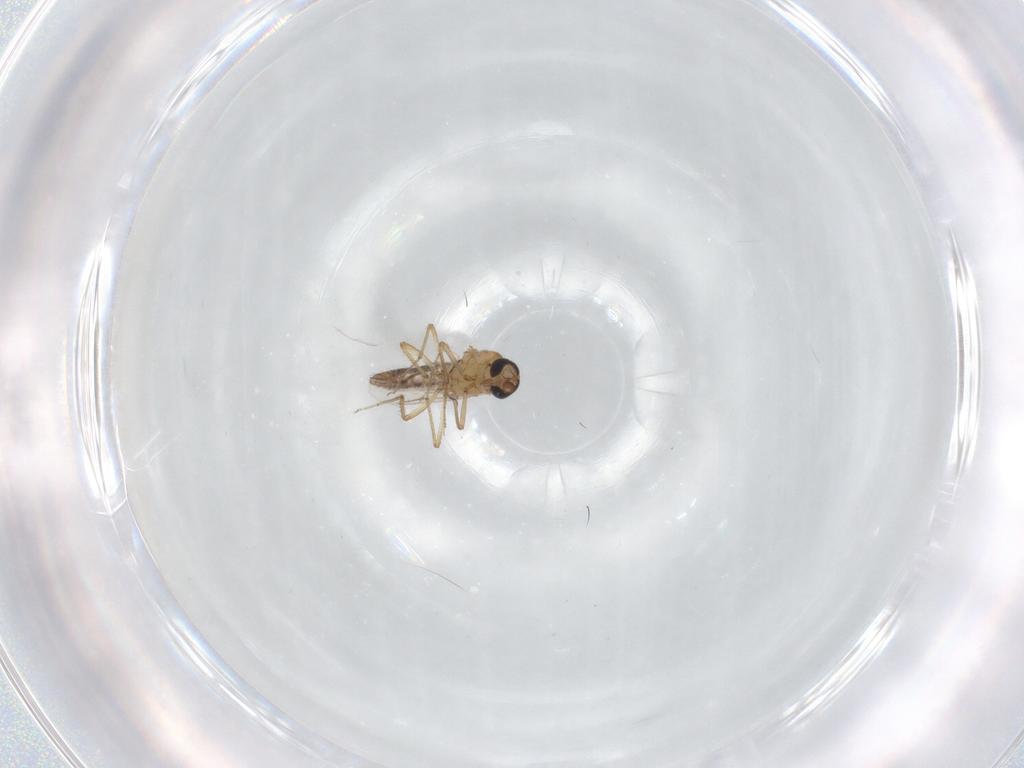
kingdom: Animalia
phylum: Arthropoda
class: Insecta
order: Diptera
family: Ceratopogonidae
